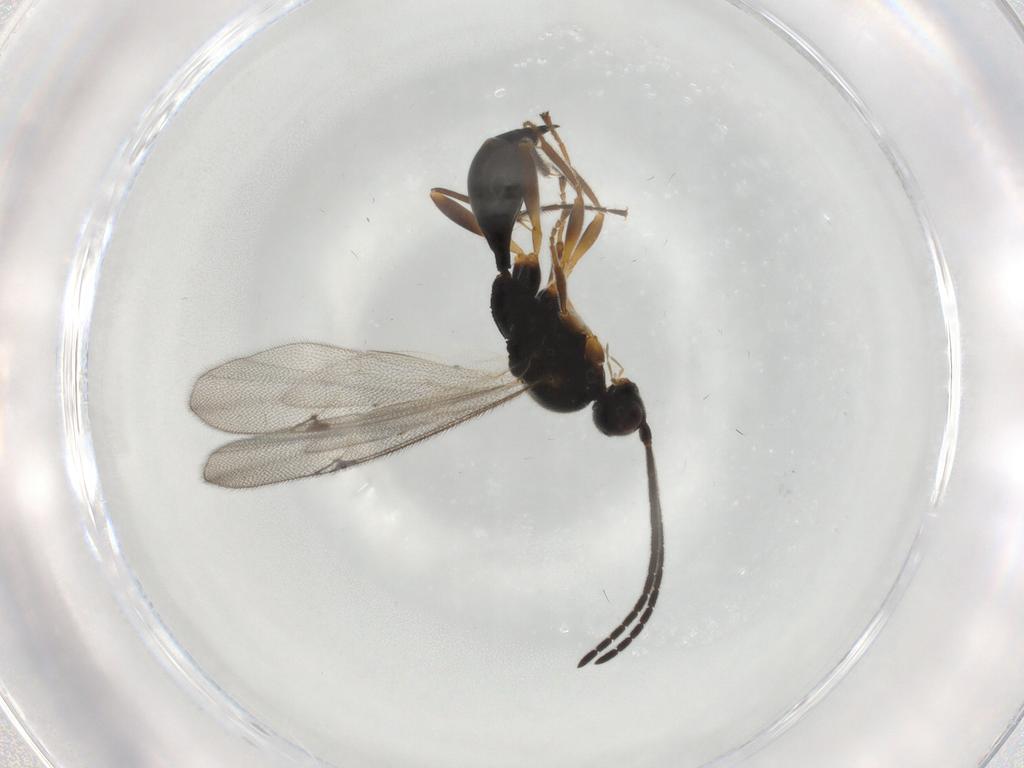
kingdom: Animalia
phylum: Arthropoda
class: Insecta
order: Hymenoptera
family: Proctotrupidae
